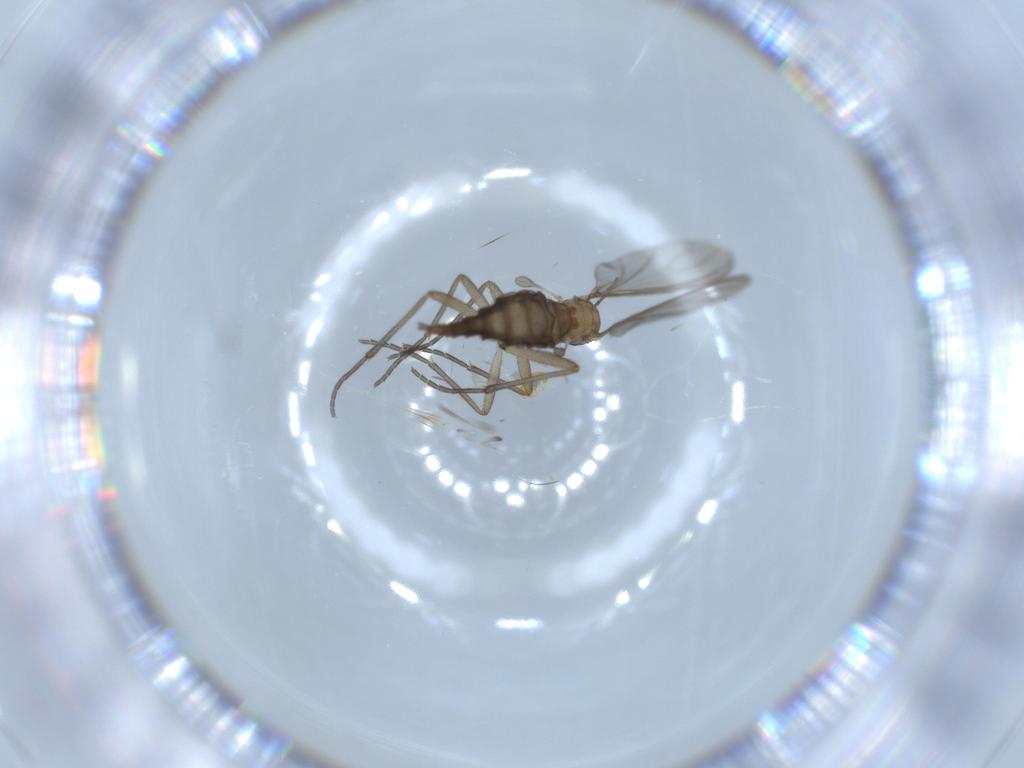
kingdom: Animalia
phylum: Arthropoda
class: Insecta
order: Diptera
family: Sciaridae
